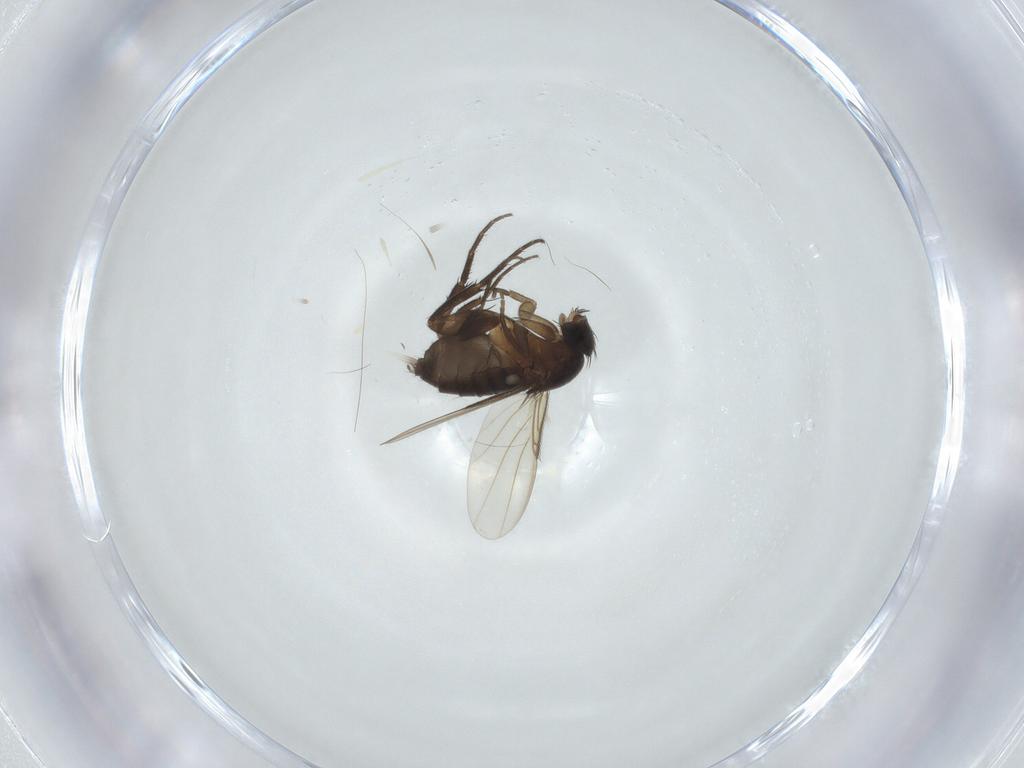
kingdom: Animalia
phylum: Arthropoda
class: Insecta
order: Diptera
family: Phoridae
